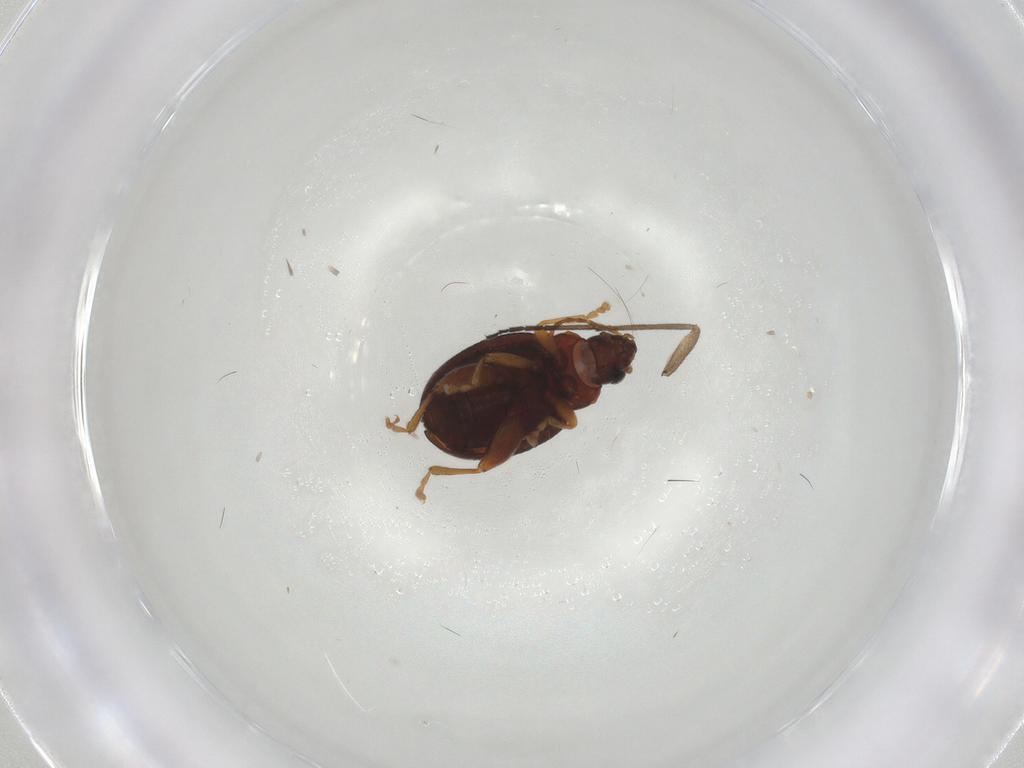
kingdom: Animalia
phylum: Arthropoda
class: Insecta
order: Coleoptera
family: Chrysomelidae
